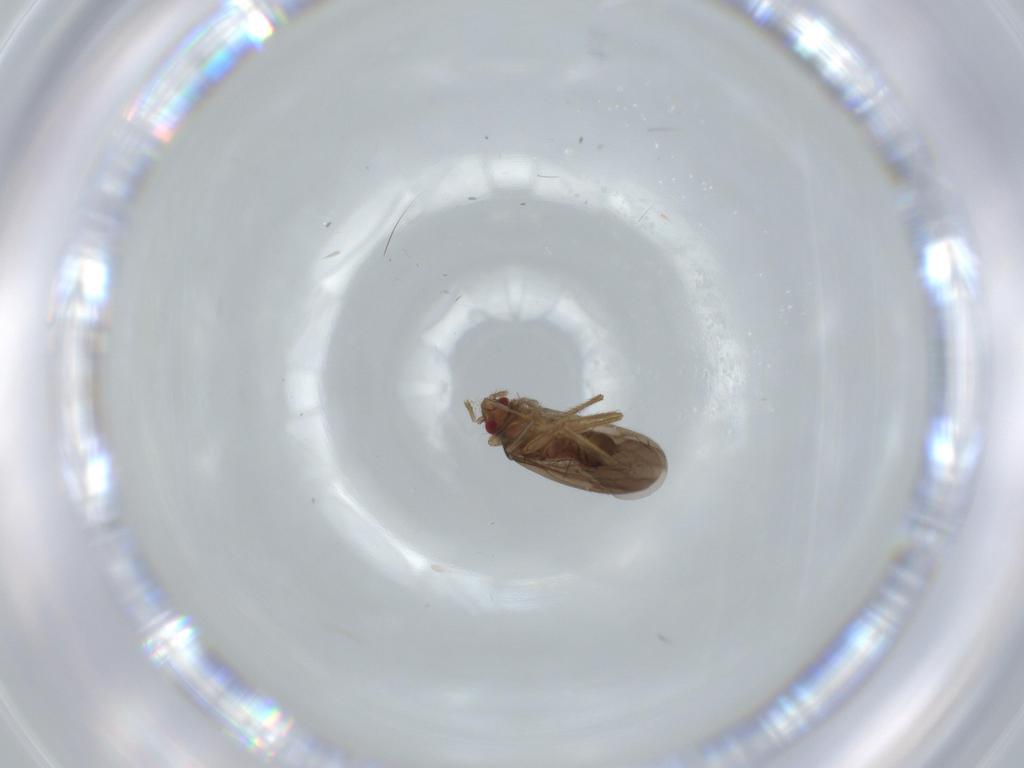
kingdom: Animalia
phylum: Arthropoda
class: Insecta
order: Hemiptera
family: Ceratocombidae
